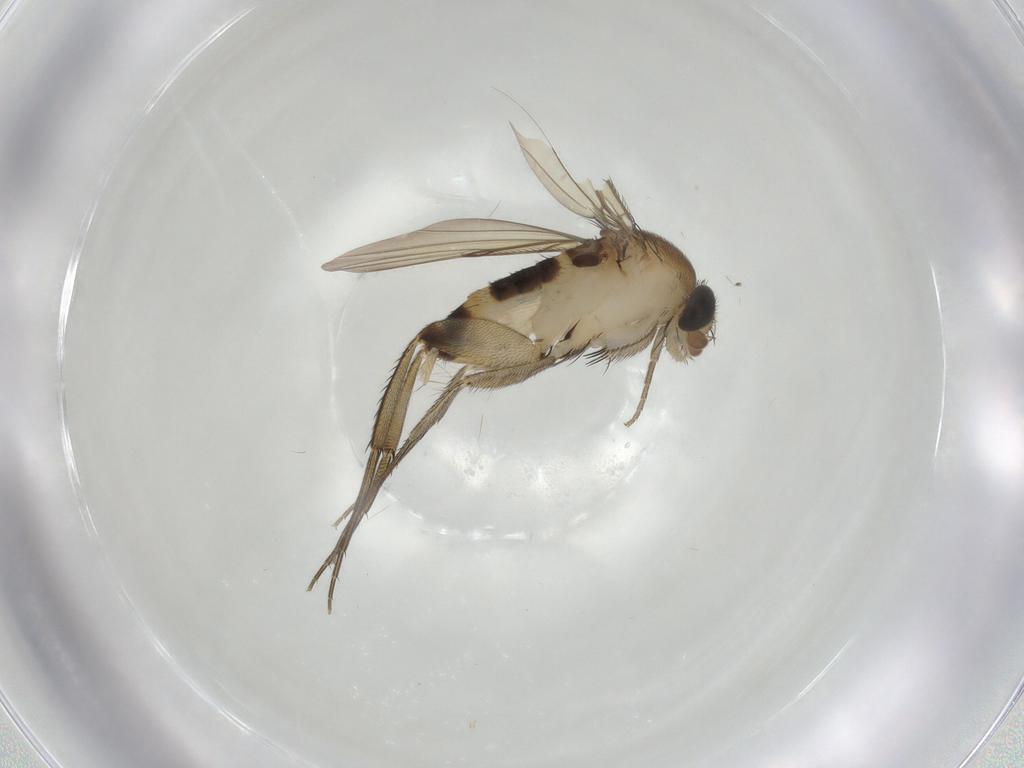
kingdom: Animalia
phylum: Arthropoda
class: Insecta
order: Diptera
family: Phoridae
